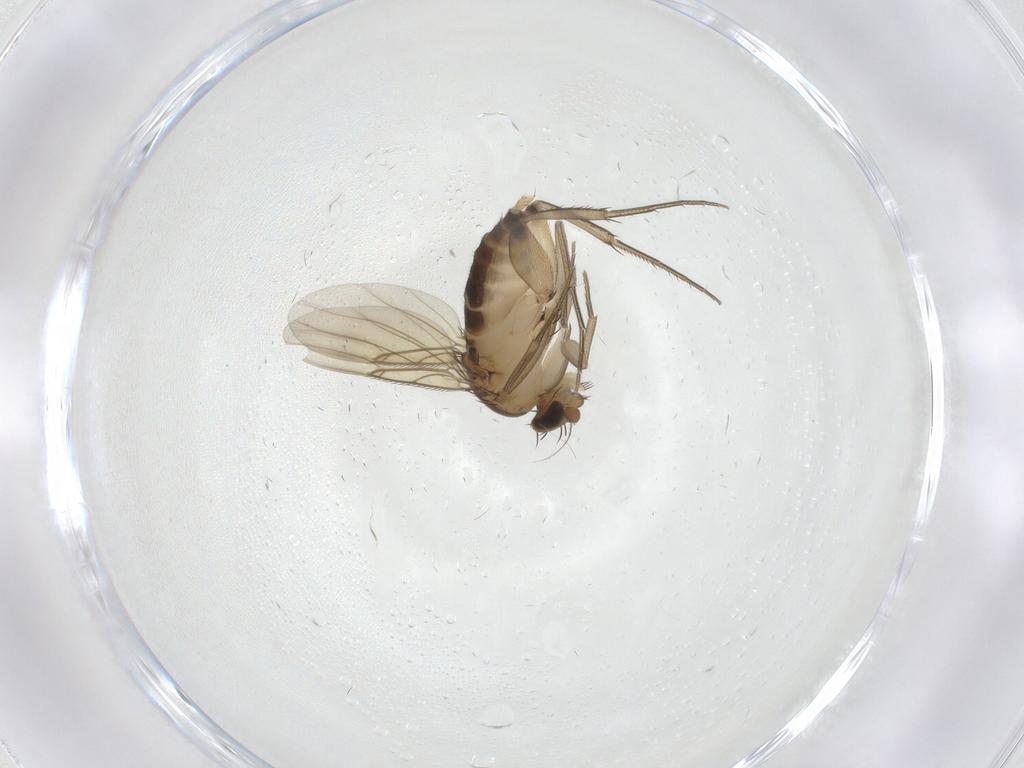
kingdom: Animalia
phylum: Arthropoda
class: Insecta
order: Diptera
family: Phoridae
